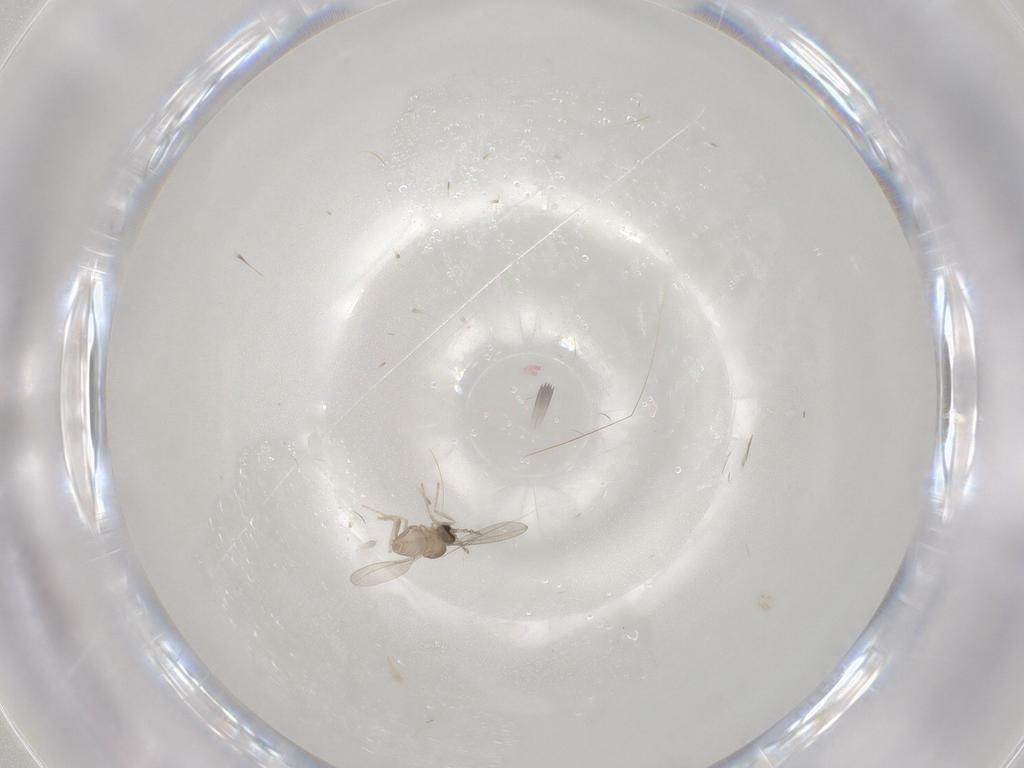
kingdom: Animalia
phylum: Arthropoda
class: Insecta
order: Diptera
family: Cecidomyiidae
